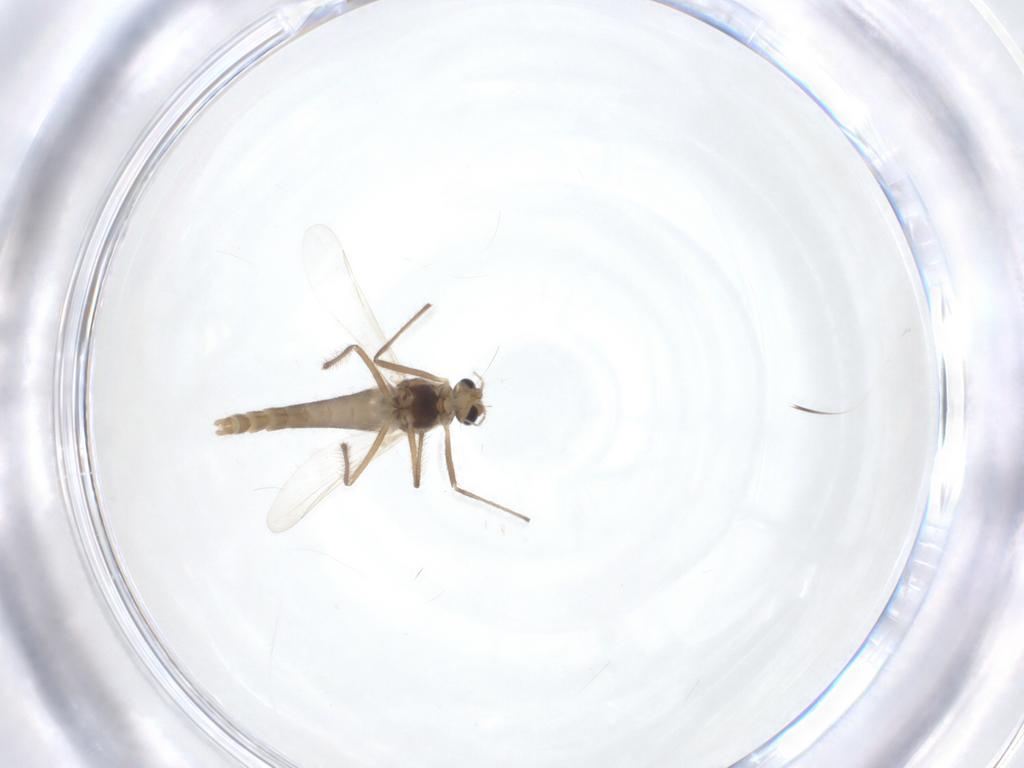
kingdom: Animalia
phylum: Arthropoda
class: Insecta
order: Diptera
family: Chironomidae
